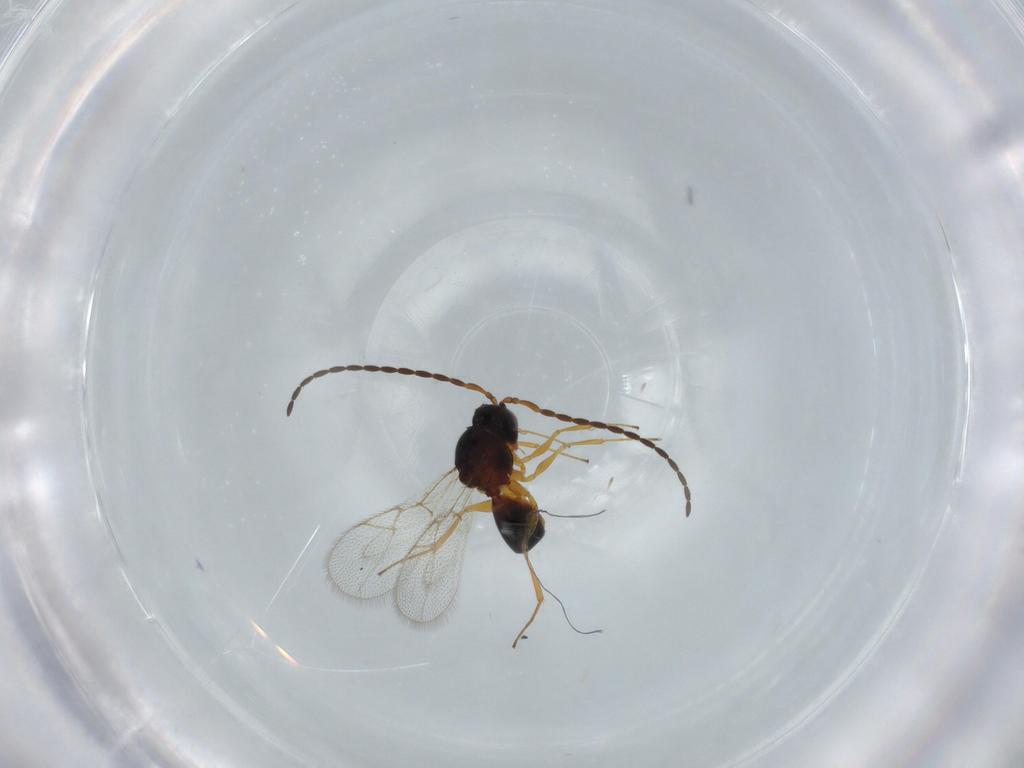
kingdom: Animalia
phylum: Arthropoda
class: Insecta
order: Hymenoptera
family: Figitidae
